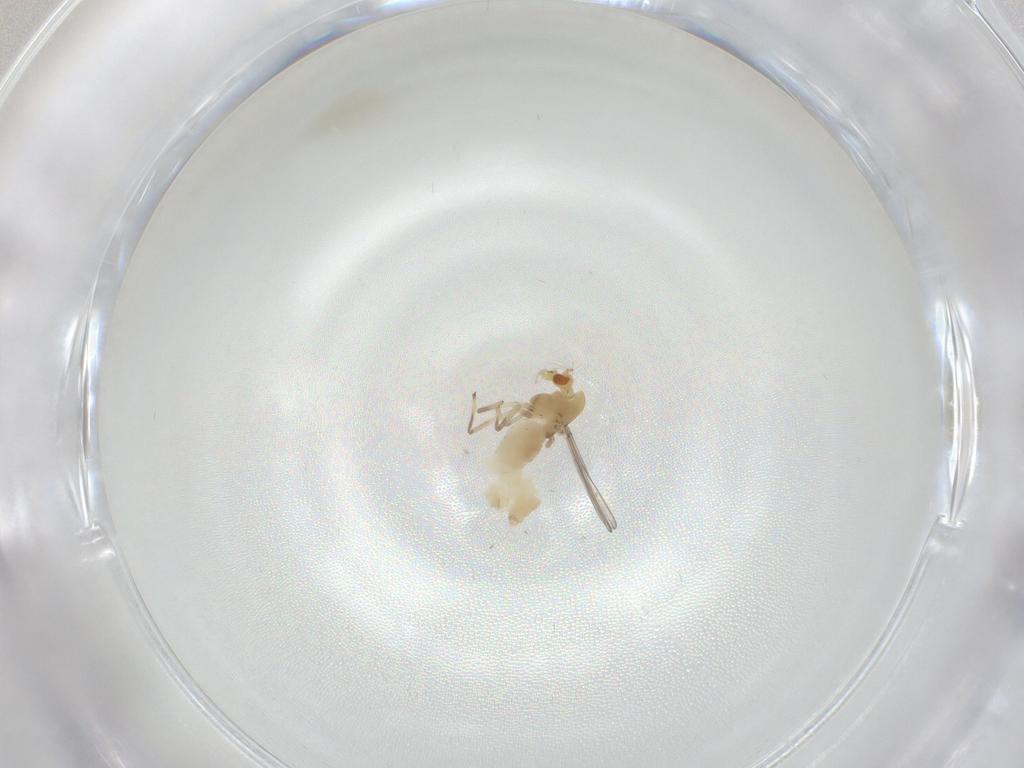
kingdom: Animalia
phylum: Arthropoda
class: Insecta
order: Diptera
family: Chironomidae
